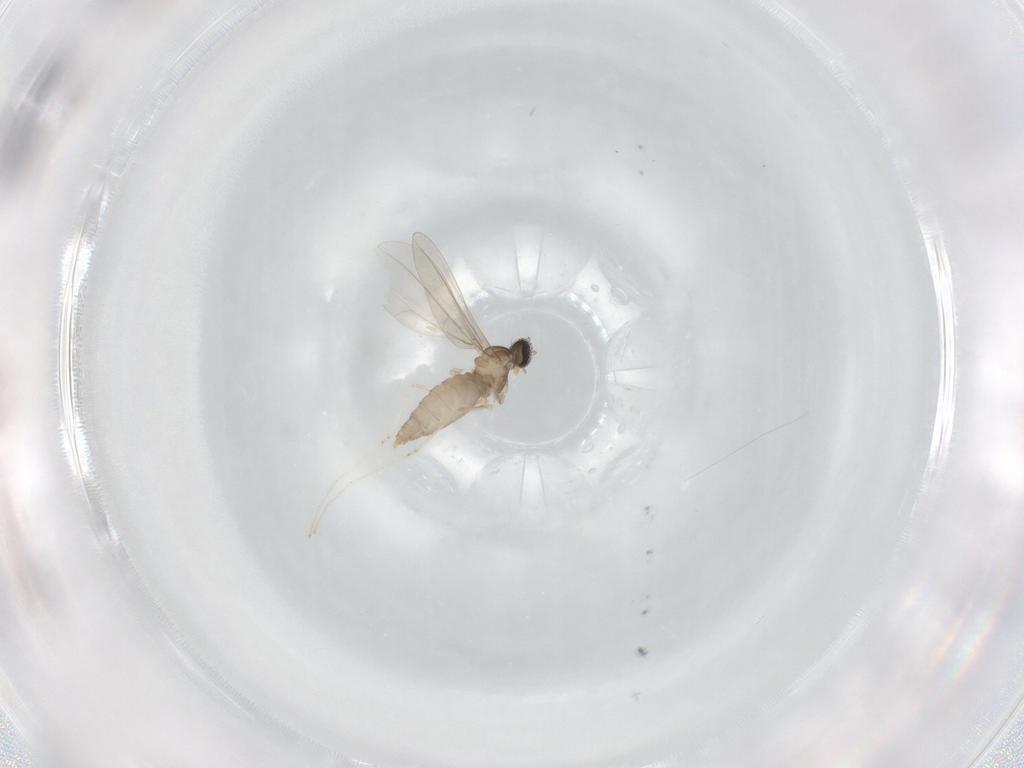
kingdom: Animalia
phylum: Arthropoda
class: Insecta
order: Diptera
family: Cecidomyiidae
